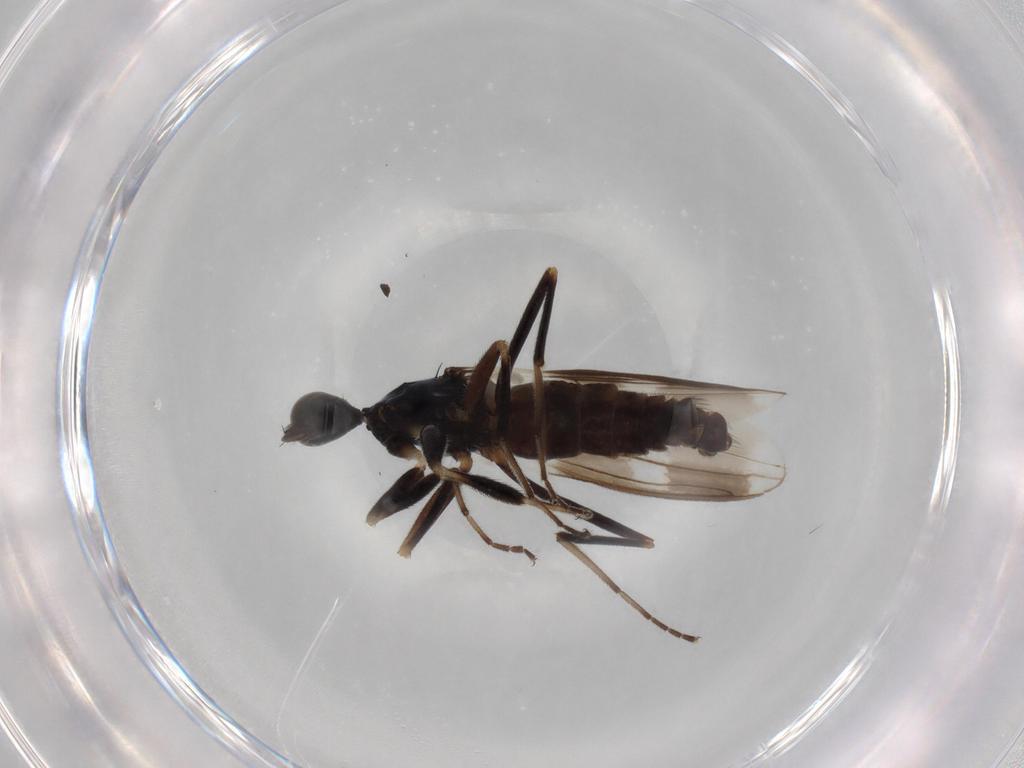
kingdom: Animalia
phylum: Arthropoda
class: Insecta
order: Diptera
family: Hybotidae
